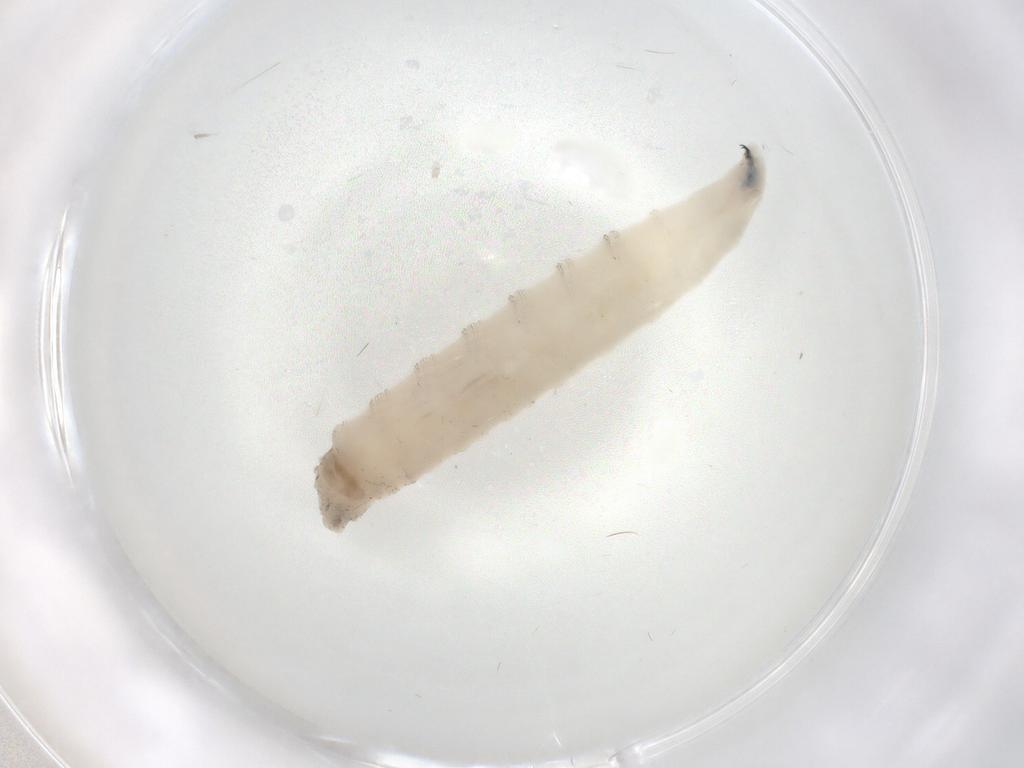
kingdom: Animalia
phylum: Arthropoda
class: Insecta
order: Diptera
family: Drosophilidae
